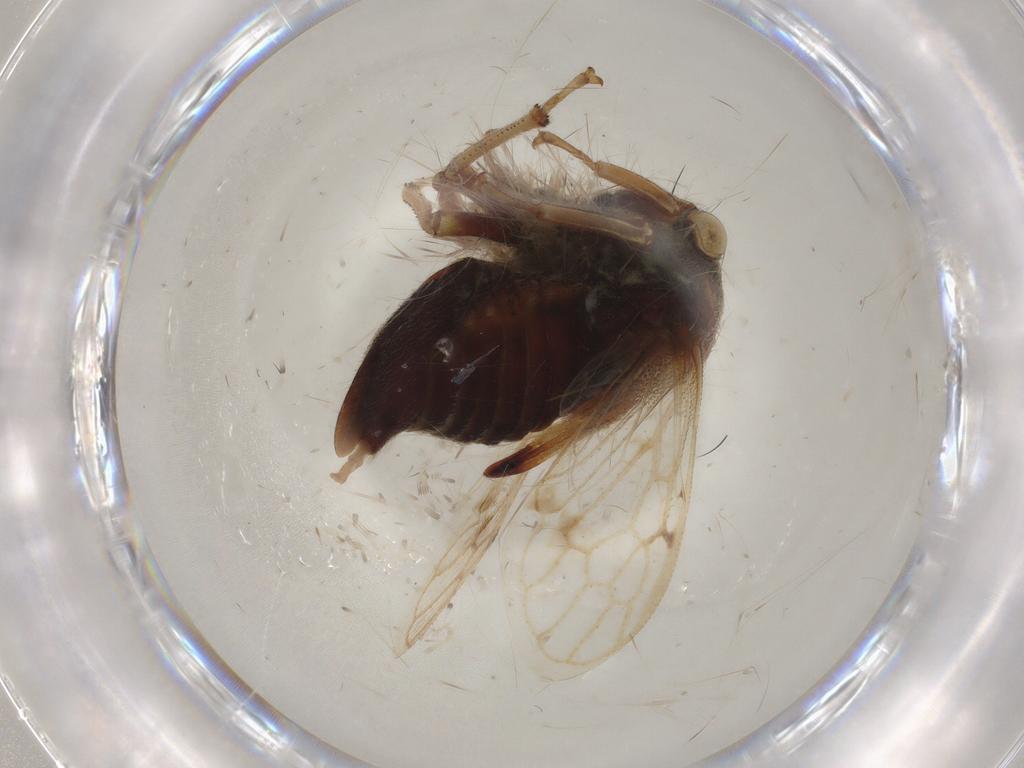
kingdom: Animalia
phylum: Arthropoda
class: Insecta
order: Hemiptera
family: Membracidae
